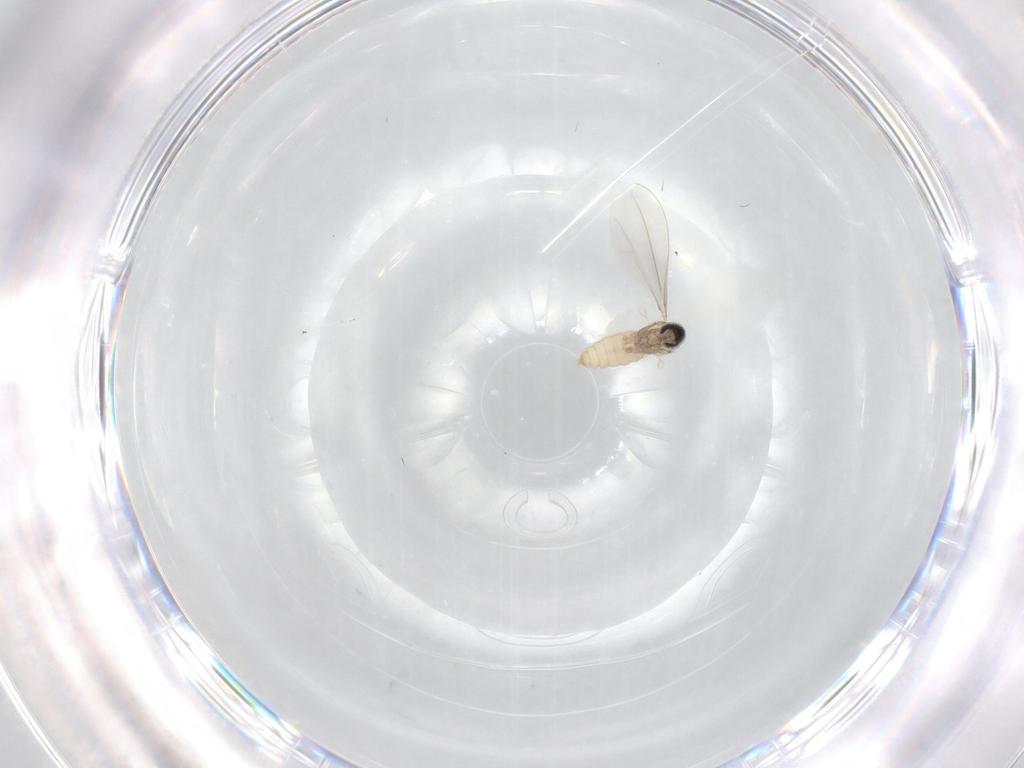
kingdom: Animalia
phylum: Arthropoda
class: Insecta
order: Diptera
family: Cecidomyiidae
